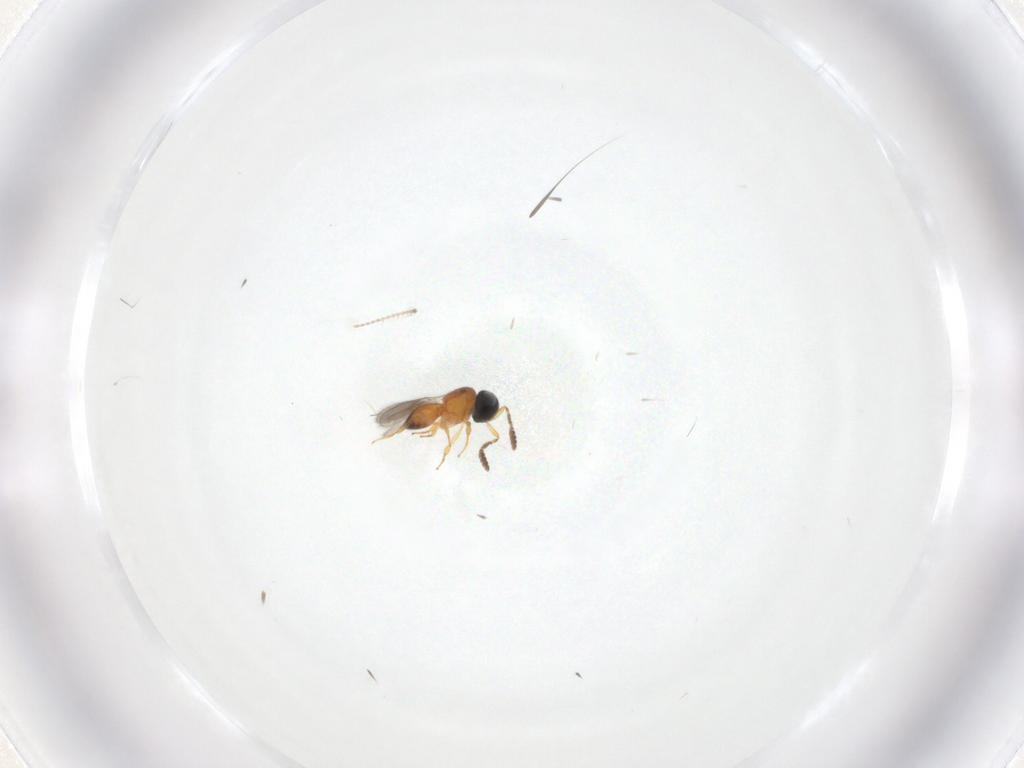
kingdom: Animalia
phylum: Arthropoda
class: Insecta
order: Hymenoptera
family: Scelionidae
